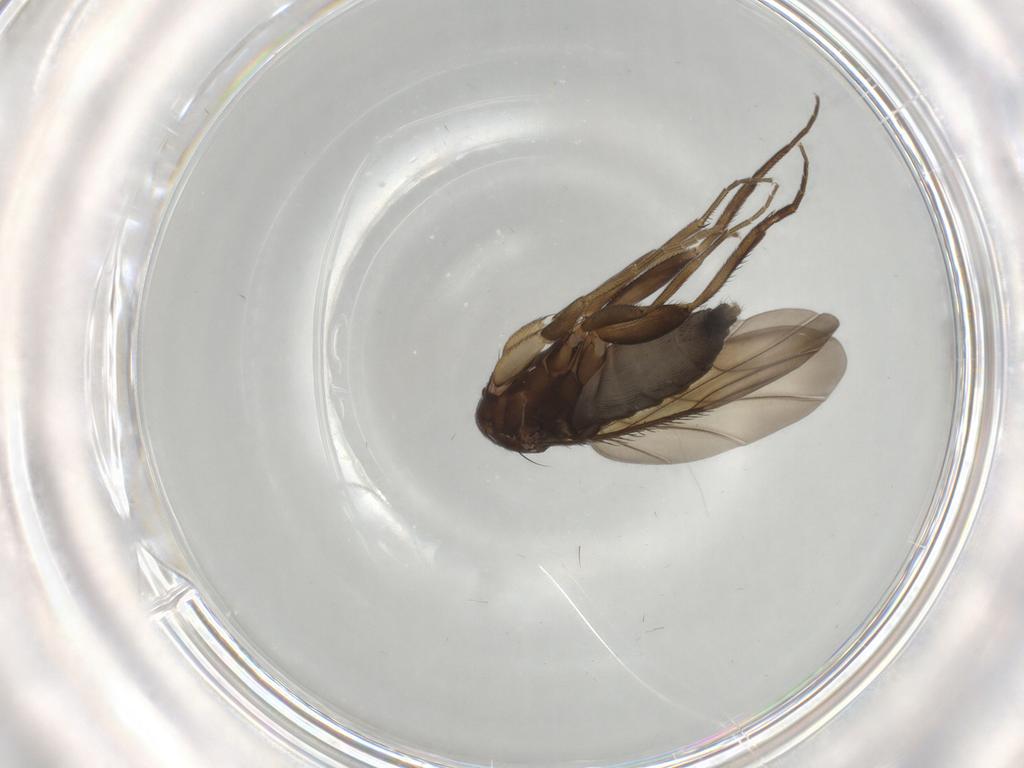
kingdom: Animalia
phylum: Arthropoda
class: Insecta
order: Diptera
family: Phoridae
